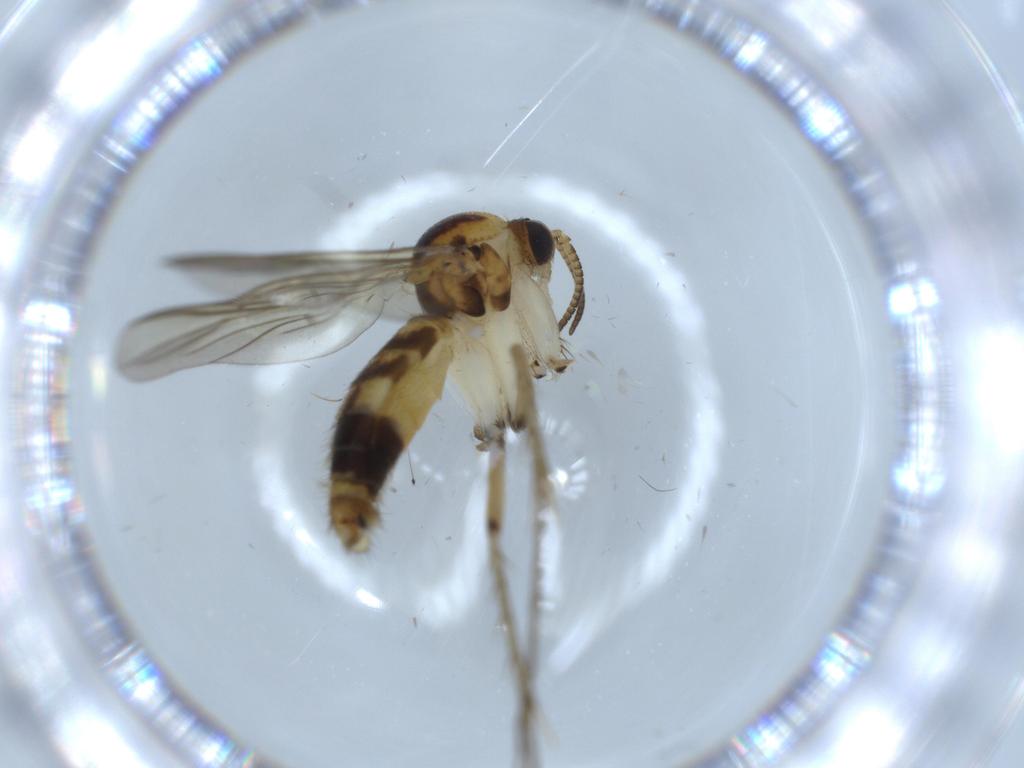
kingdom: Animalia
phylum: Arthropoda
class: Insecta
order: Diptera
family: Mycetophilidae
